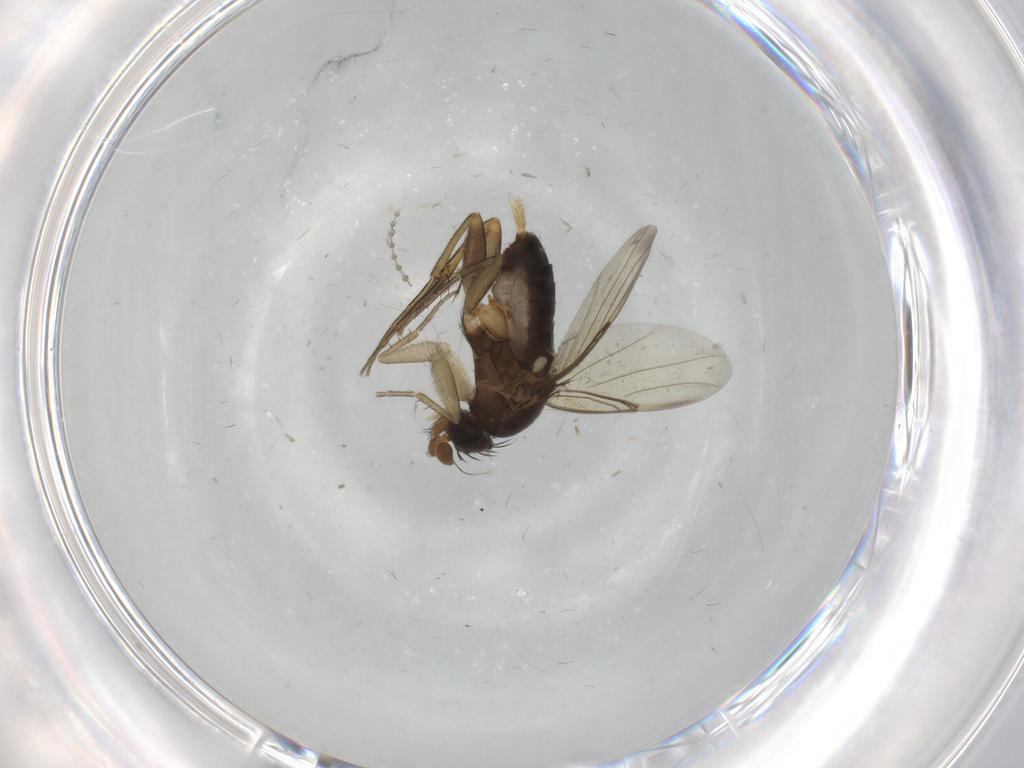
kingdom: Animalia
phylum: Arthropoda
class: Insecta
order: Diptera
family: Phoridae
